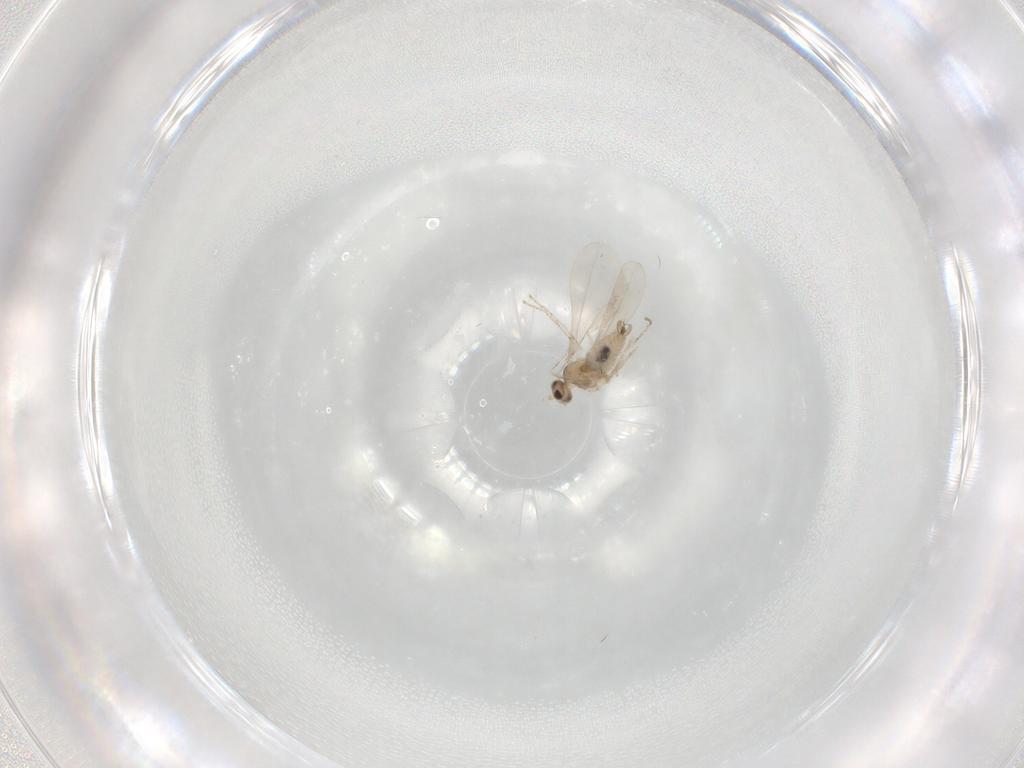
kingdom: Animalia
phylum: Arthropoda
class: Insecta
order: Diptera
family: Cecidomyiidae
